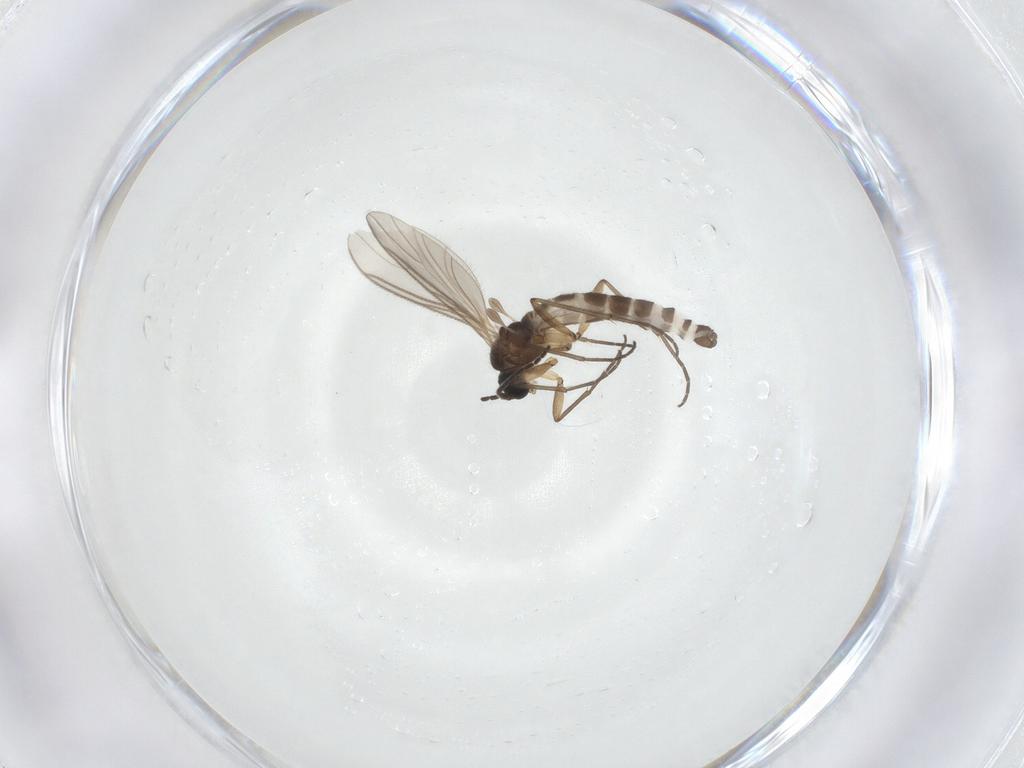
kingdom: Animalia
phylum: Arthropoda
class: Insecta
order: Diptera
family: Sciaridae
